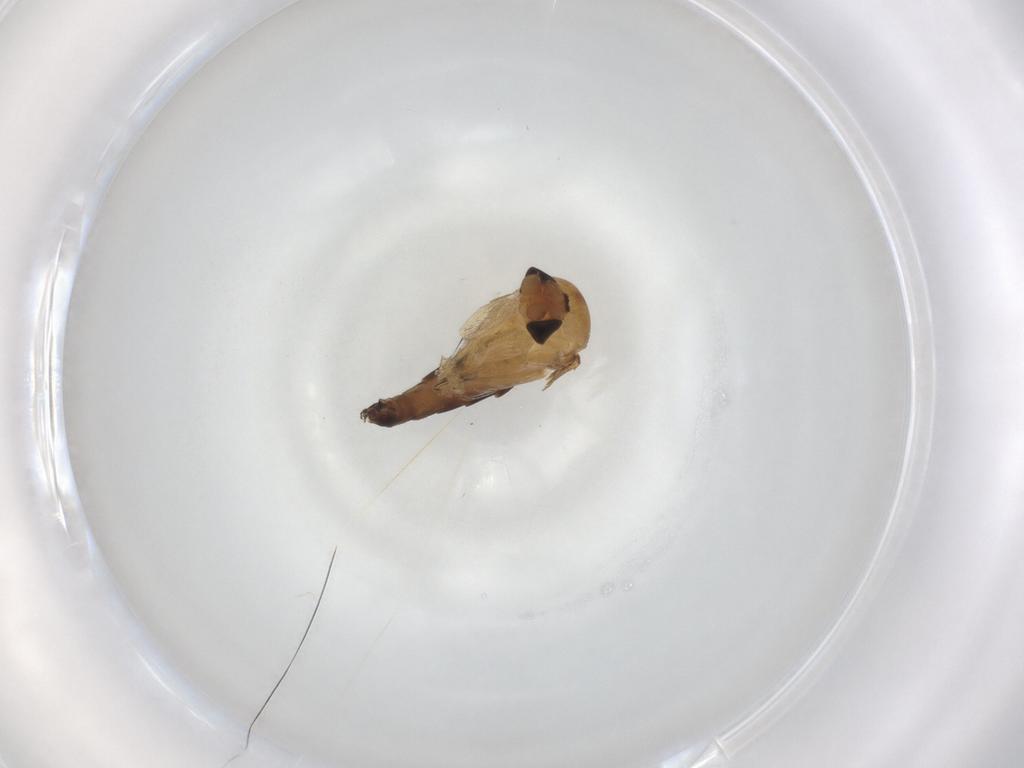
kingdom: Animalia
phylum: Arthropoda
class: Insecta
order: Diptera
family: Phoridae
